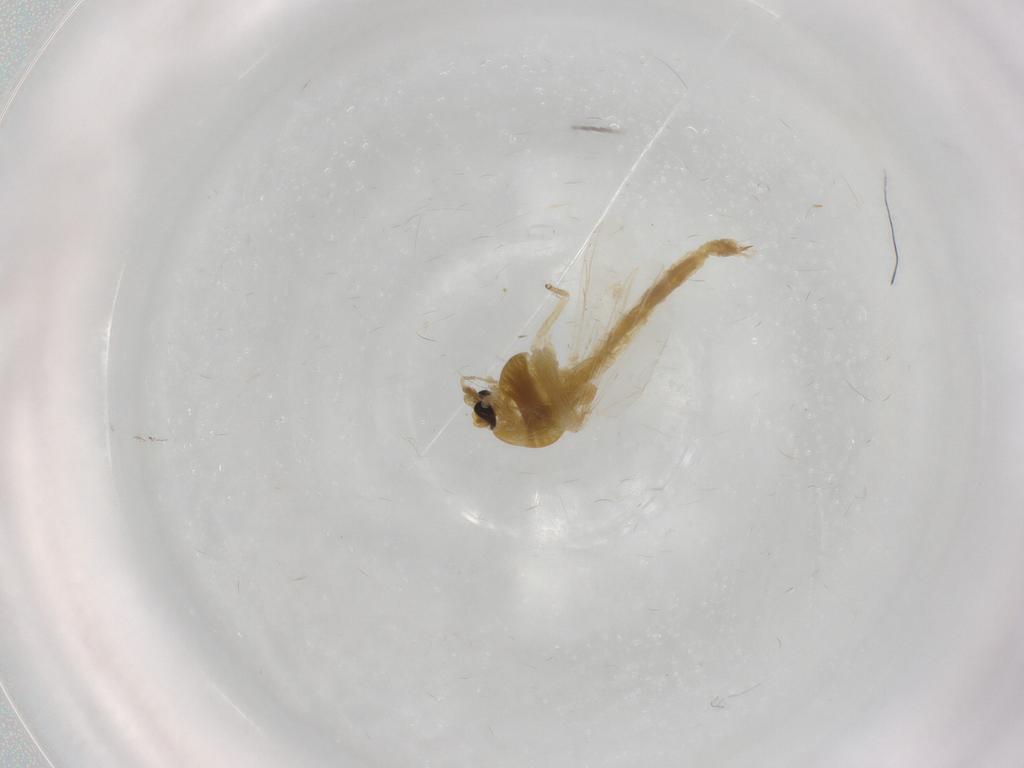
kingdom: Animalia
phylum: Arthropoda
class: Insecta
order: Diptera
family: Chironomidae
